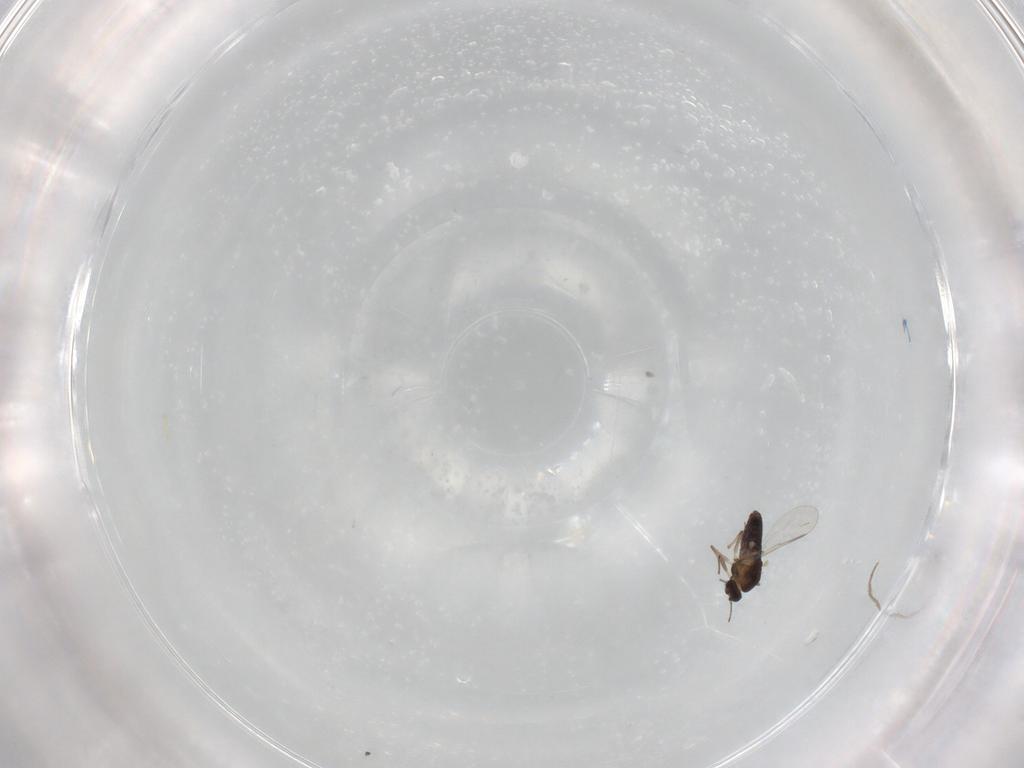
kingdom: Animalia
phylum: Arthropoda
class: Insecta
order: Diptera
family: Chironomidae
